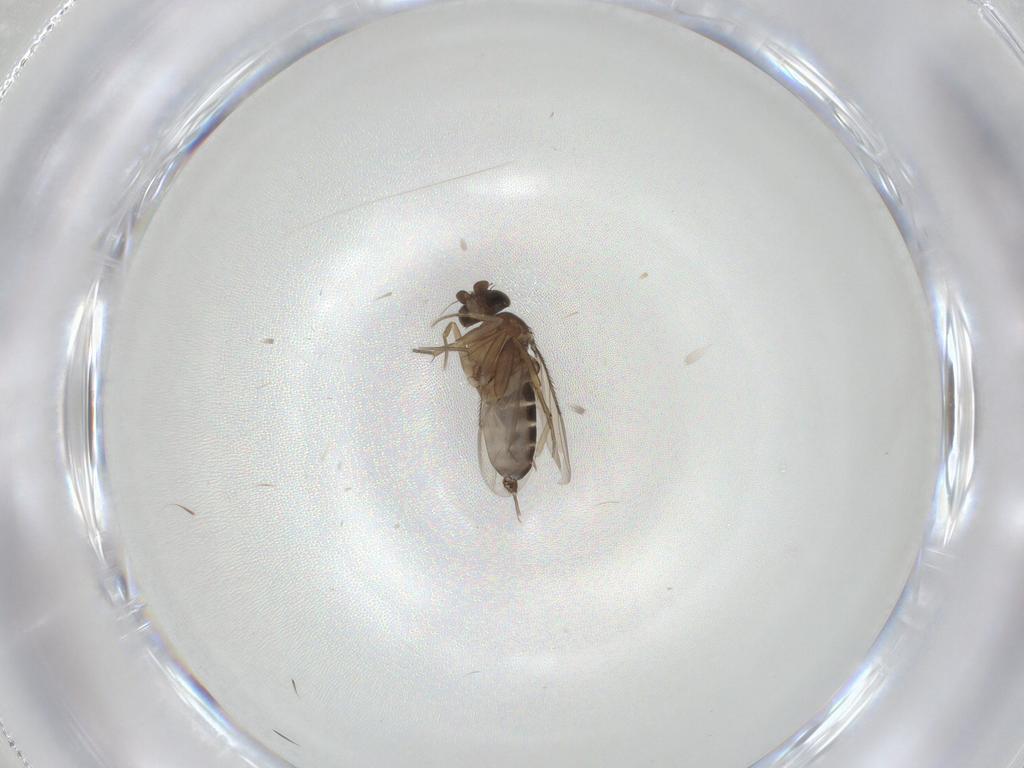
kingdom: Animalia
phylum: Arthropoda
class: Insecta
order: Diptera
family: Phoridae
